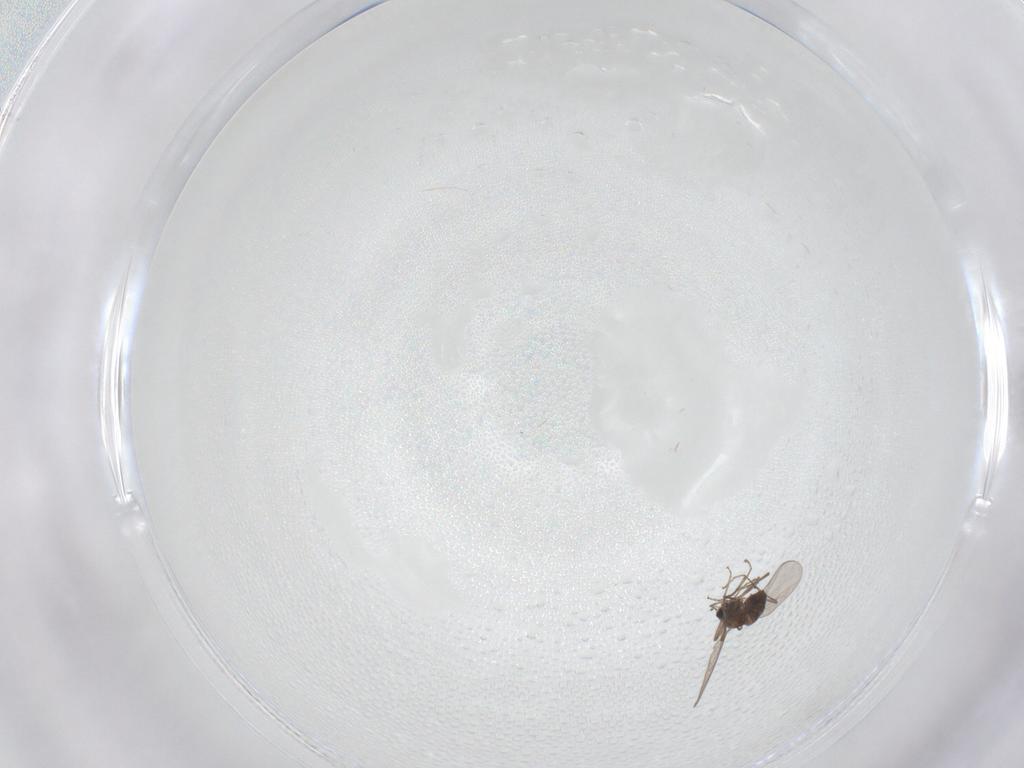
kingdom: Animalia
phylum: Arthropoda
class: Insecta
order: Diptera
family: Chironomidae
